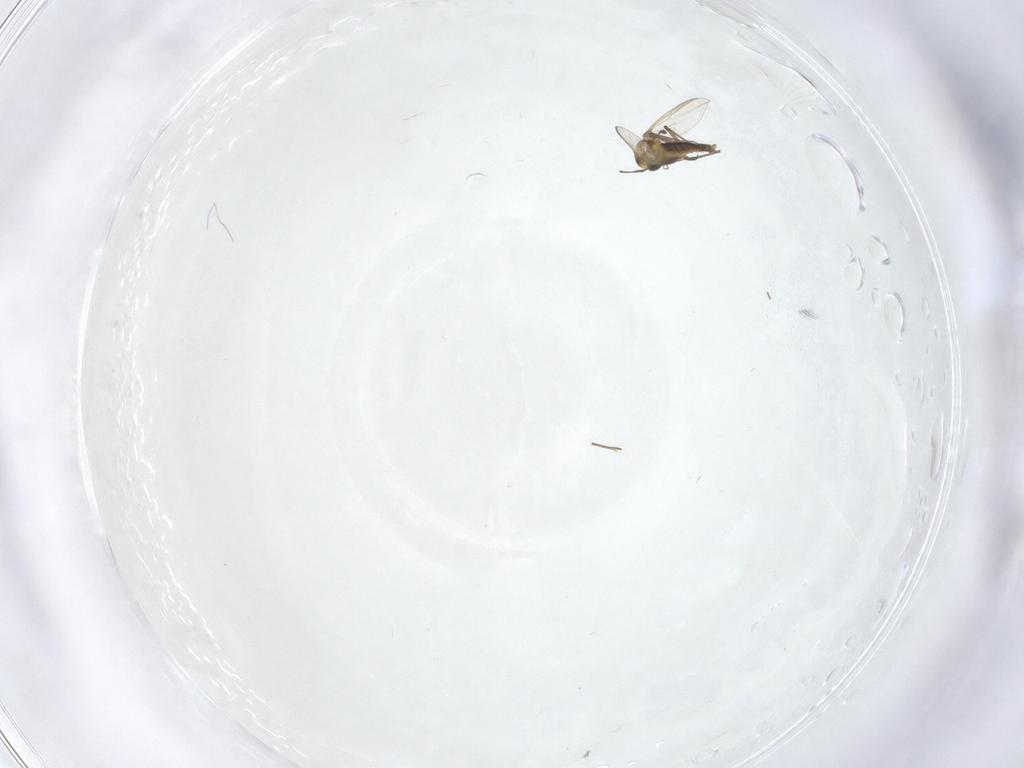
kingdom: Animalia
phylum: Arthropoda
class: Insecta
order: Diptera
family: Chironomidae
